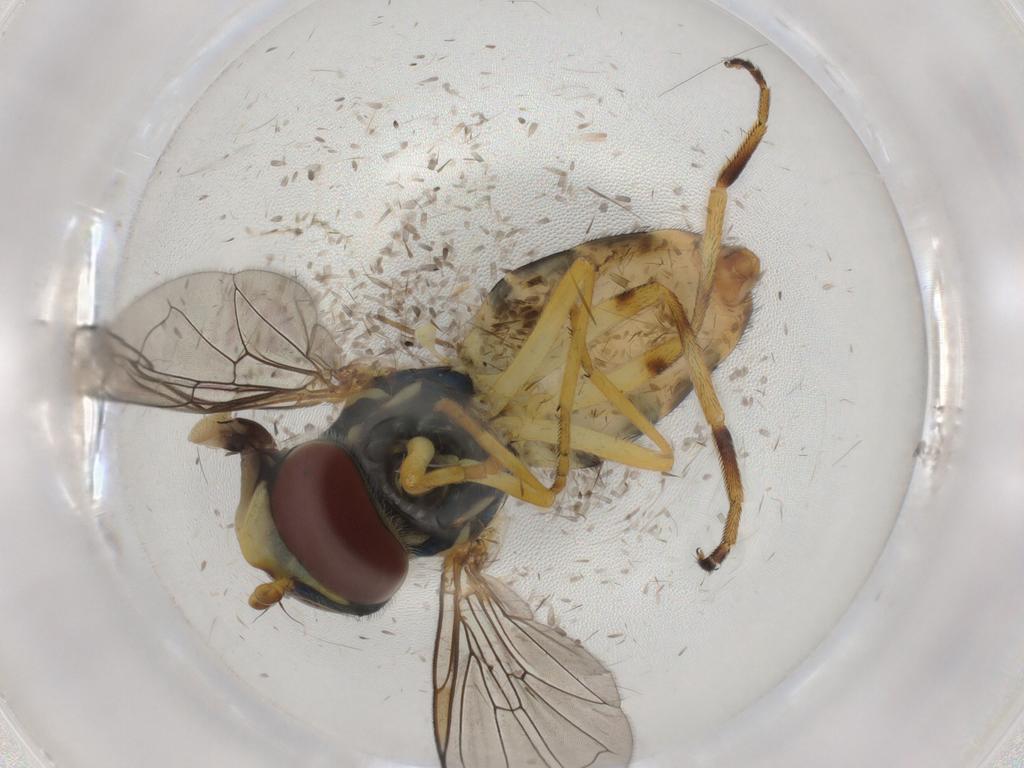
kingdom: Animalia
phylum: Arthropoda
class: Insecta
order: Diptera
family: Syrphidae
